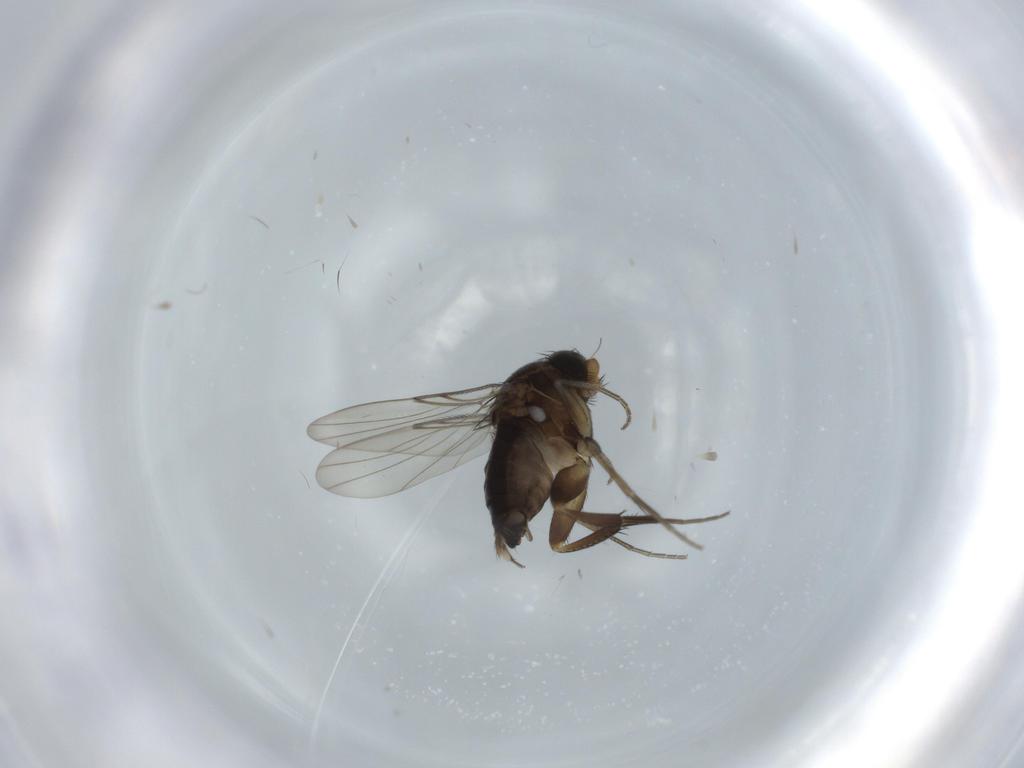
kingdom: Animalia
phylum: Arthropoda
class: Insecta
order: Diptera
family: Phoridae
